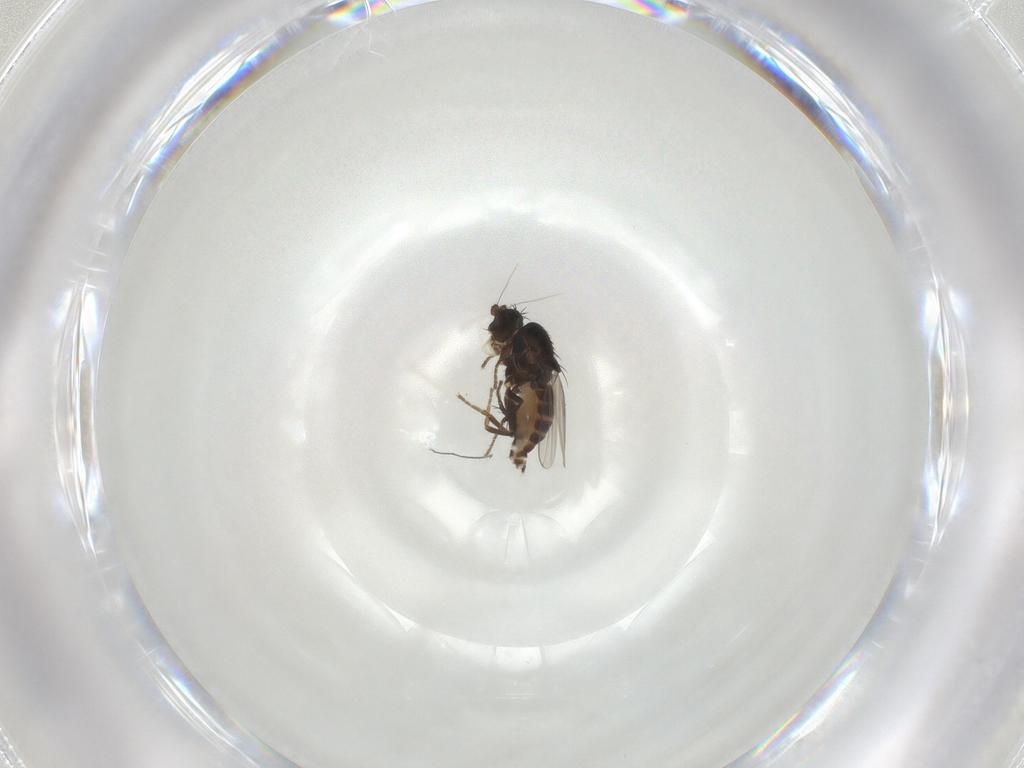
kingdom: Animalia
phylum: Arthropoda
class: Insecta
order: Diptera
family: Sphaeroceridae
